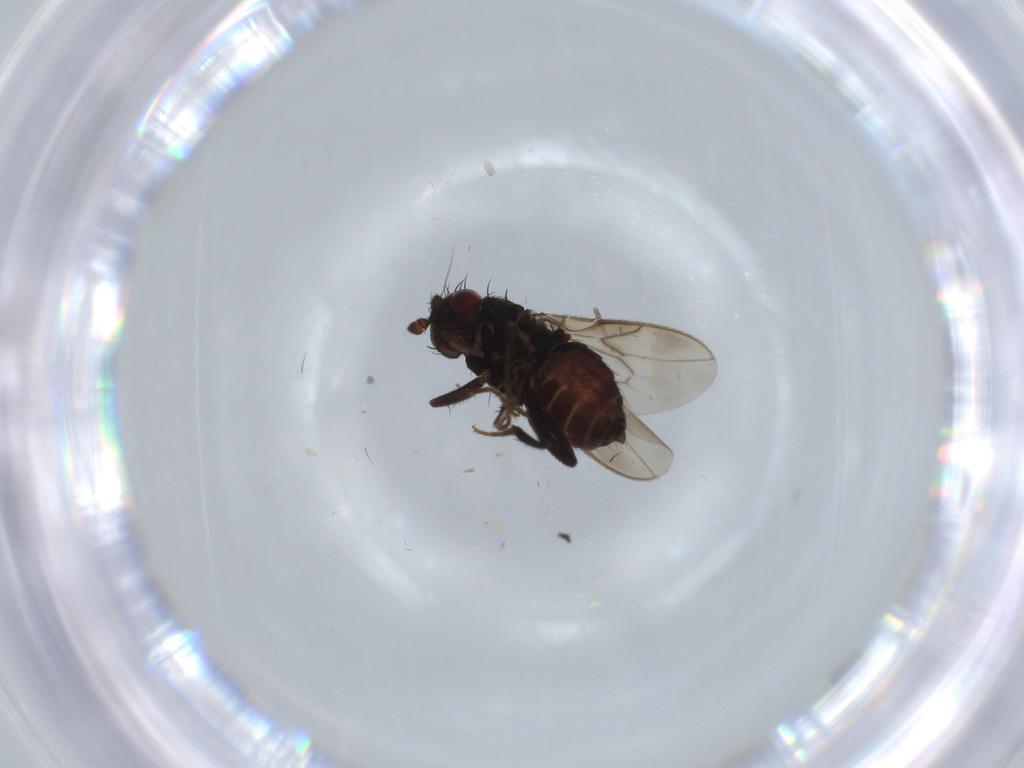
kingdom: Animalia
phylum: Arthropoda
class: Insecta
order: Diptera
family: Sphaeroceridae
